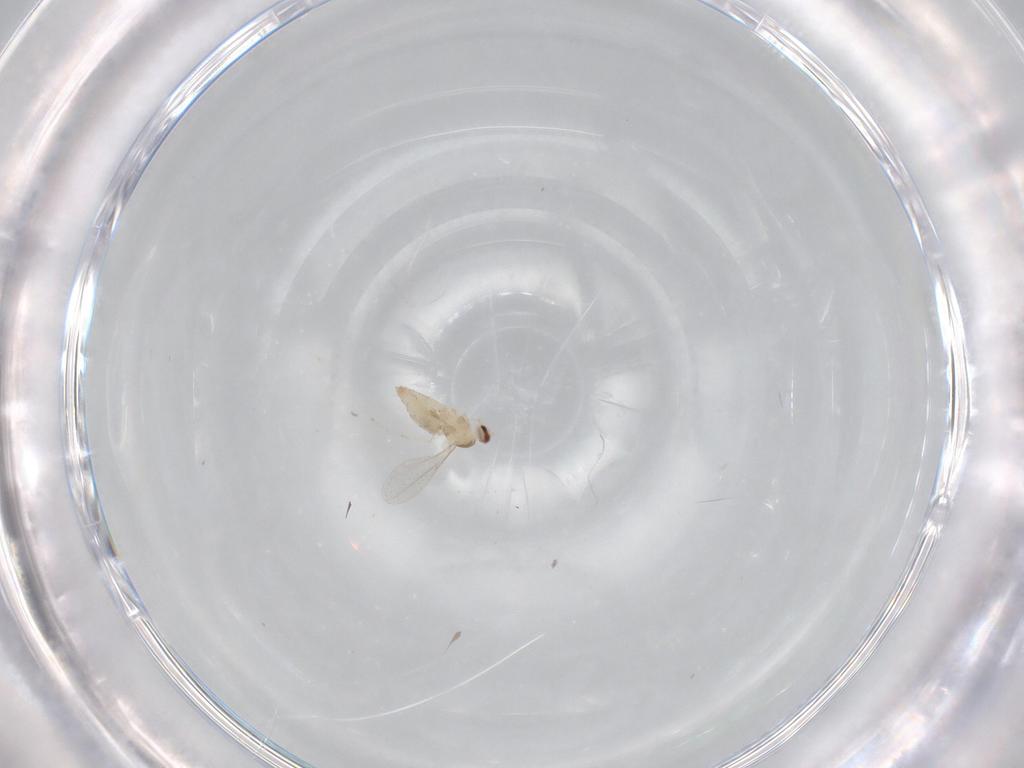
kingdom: Animalia
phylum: Arthropoda
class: Insecta
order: Diptera
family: Cecidomyiidae
